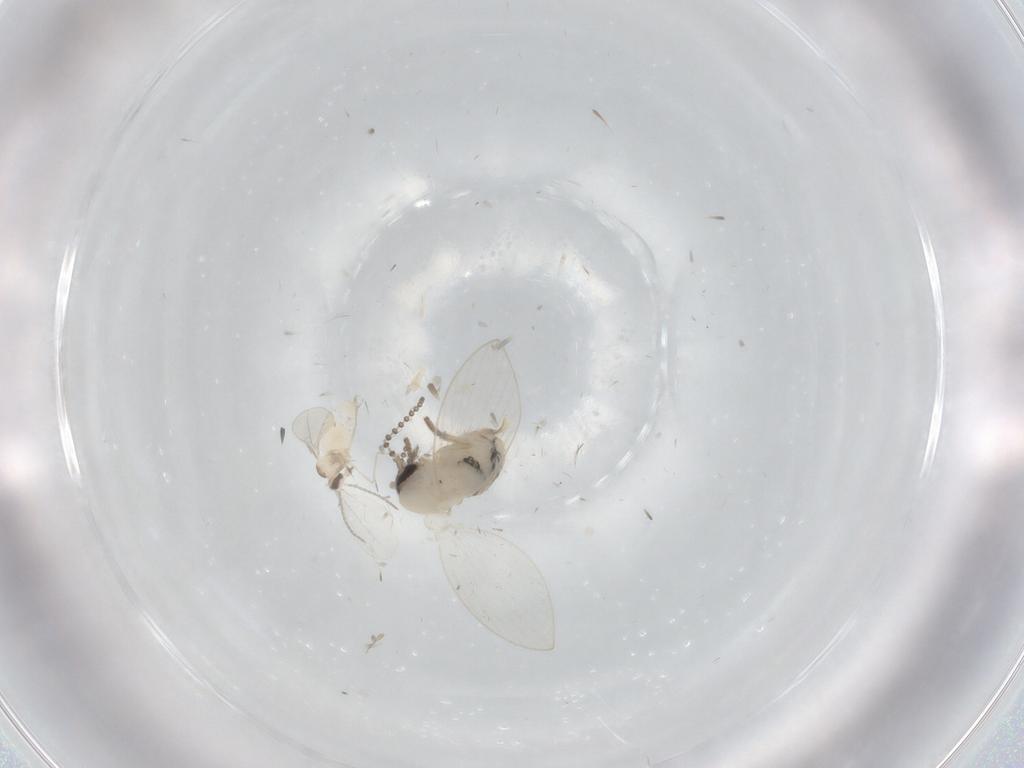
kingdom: Animalia
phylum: Arthropoda
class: Insecta
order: Diptera
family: Psychodidae
